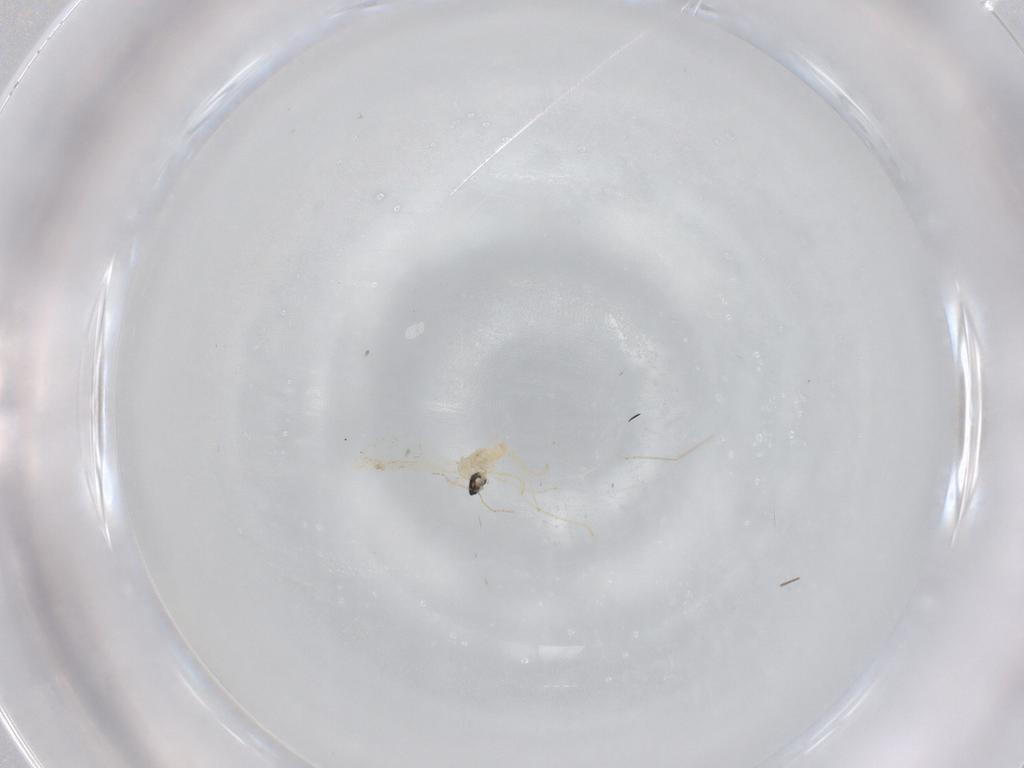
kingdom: Animalia
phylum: Arthropoda
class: Insecta
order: Diptera
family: Cecidomyiidae
